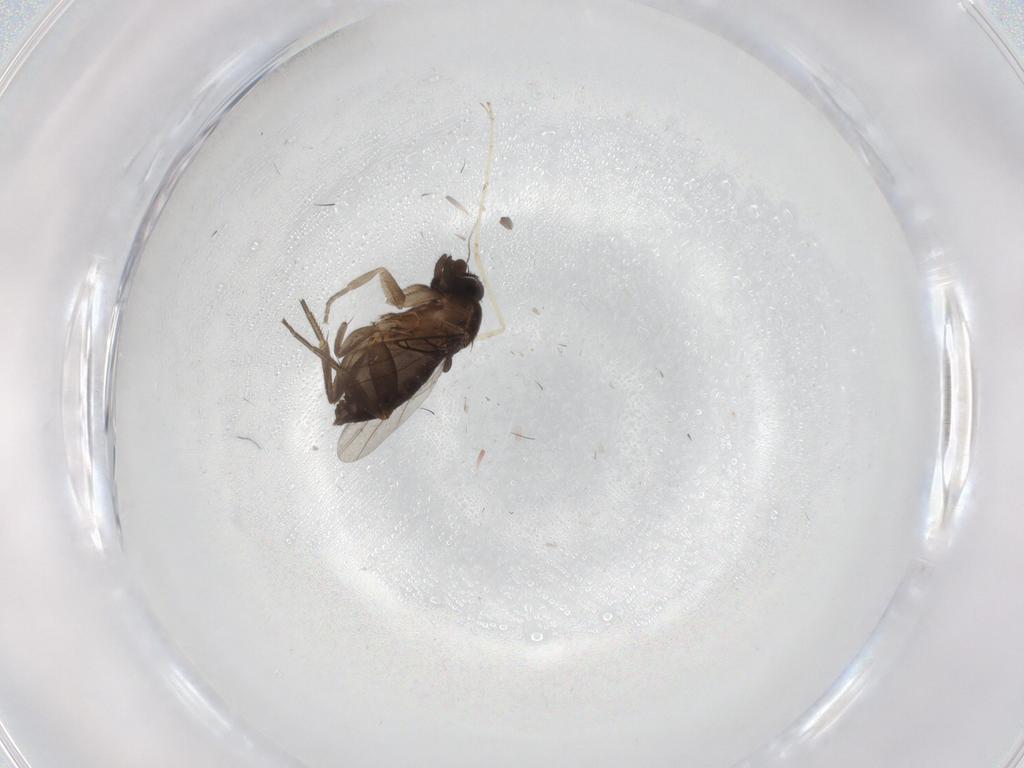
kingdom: Animalia
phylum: Arthropoda
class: Insecta
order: Diptera
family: Phoridae
